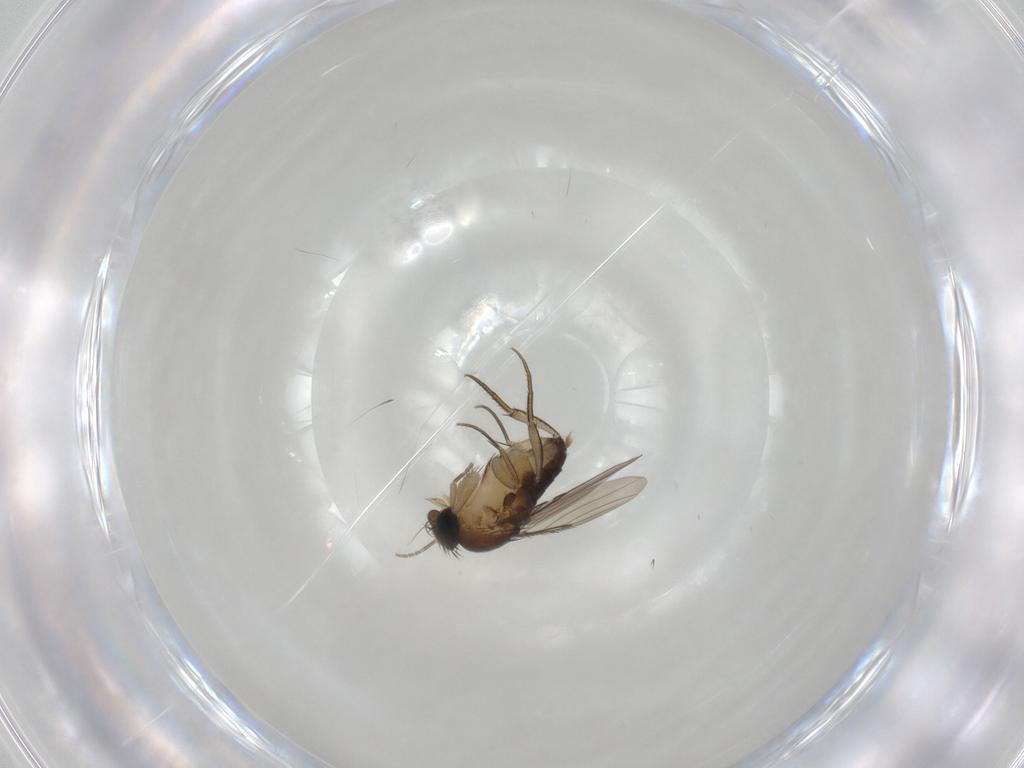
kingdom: Animalia
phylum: Arthropoda
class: Insecta
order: Diptera
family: Phoridae
